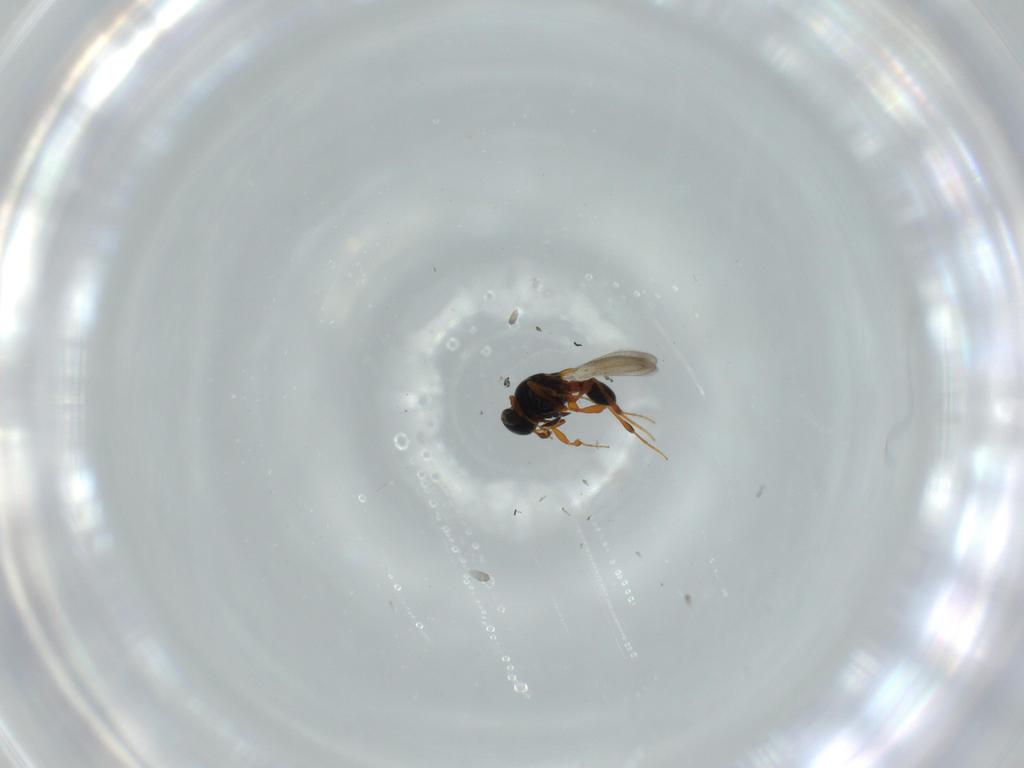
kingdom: Animalia
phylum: Arthropoda
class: Insecta
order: Hymenoptera
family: Platygastridae
